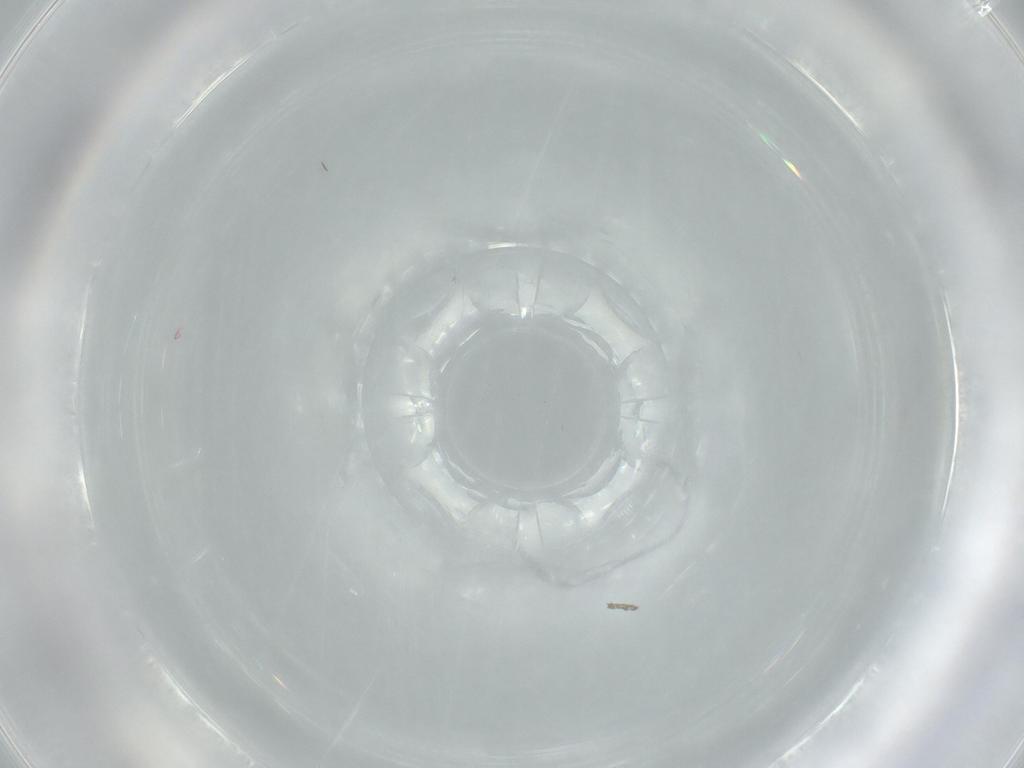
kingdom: Animalia
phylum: Arthropoda
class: Insecta
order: Diptera
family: Drosophilidae
